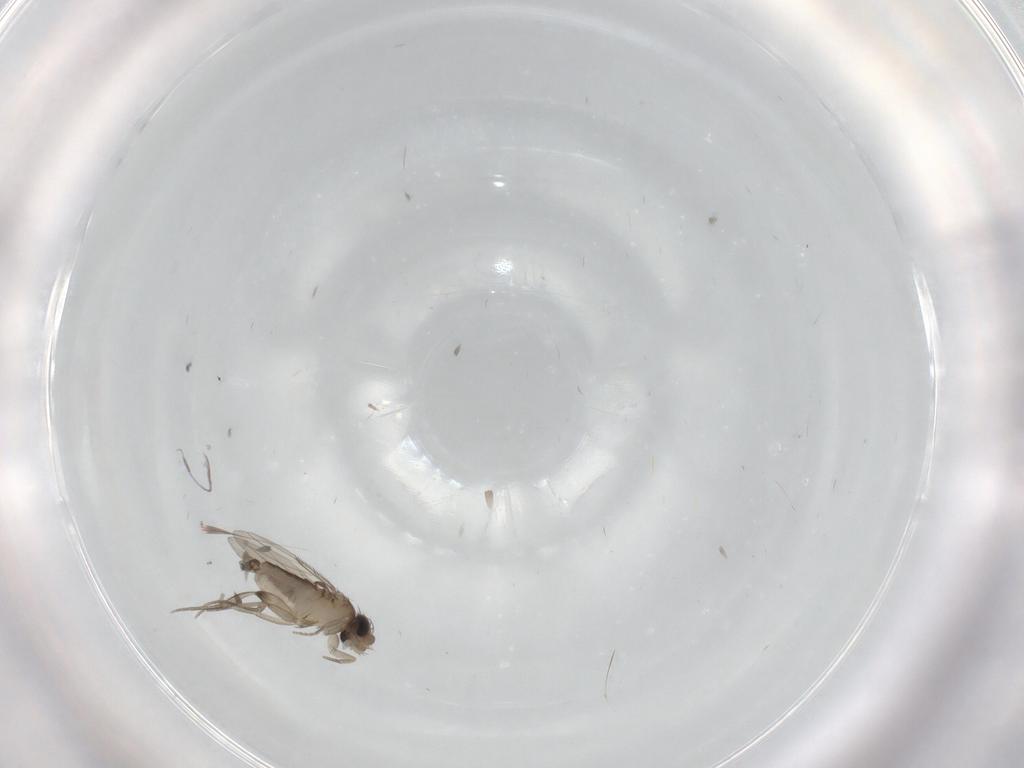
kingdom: Animalia
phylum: Arthropoda
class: Insecta
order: Diptera
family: Phoridae
